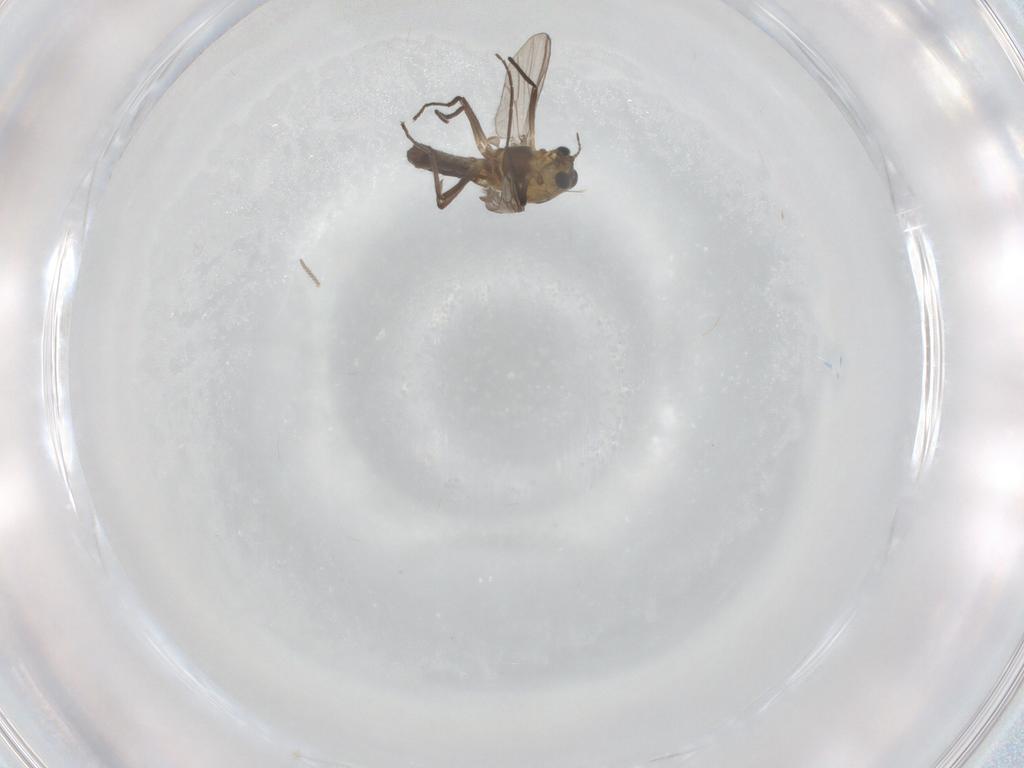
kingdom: Animalia
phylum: Arthropoda
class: Insecta
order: Diptera
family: Chironomidae
